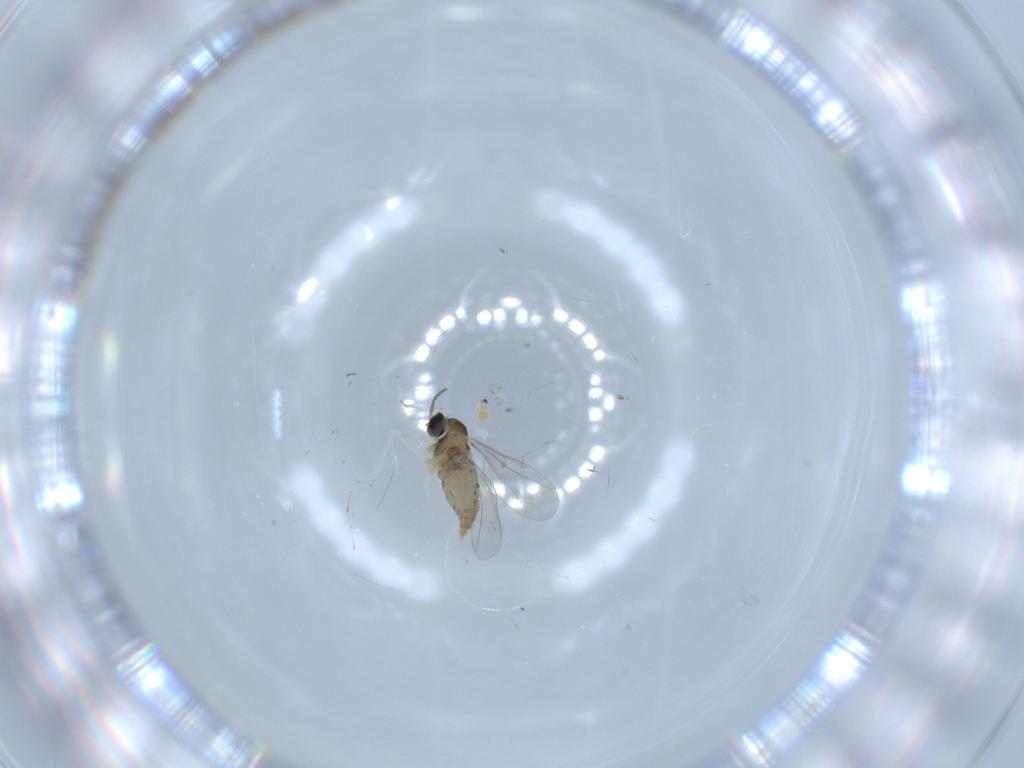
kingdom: Animalia
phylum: Arthropoda
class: Insecta
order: Diptera
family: Cecidomyiidae
